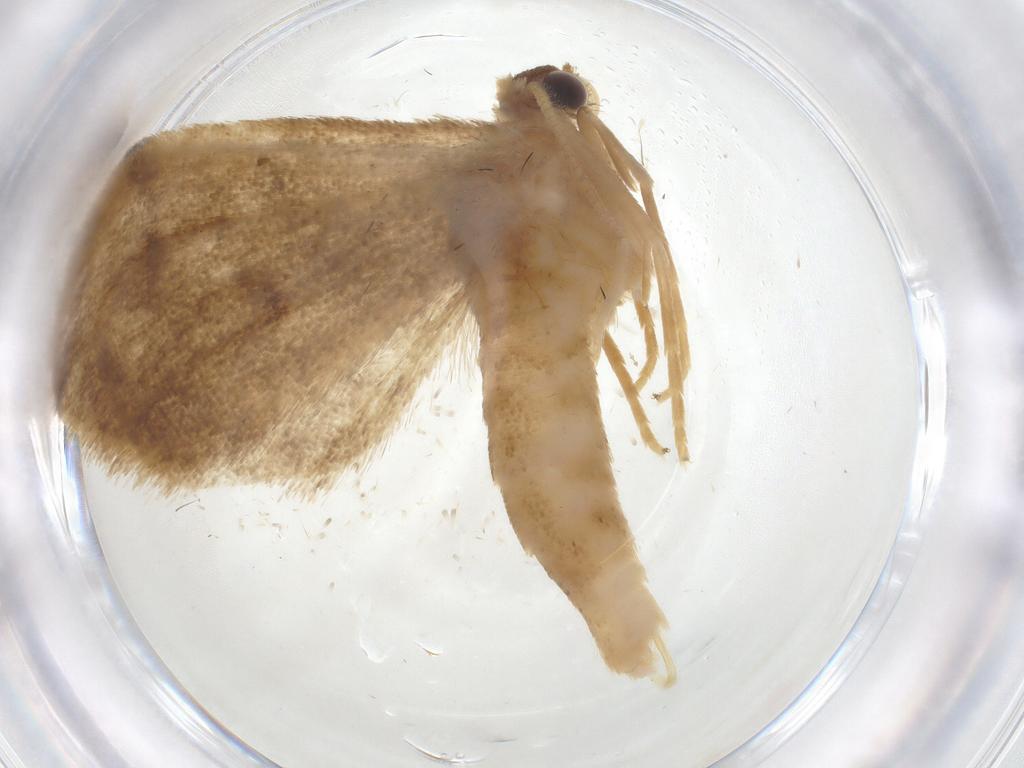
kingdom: Animalia
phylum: Arthropoda
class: Insecta
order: Lepidoptera
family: Geometridae
